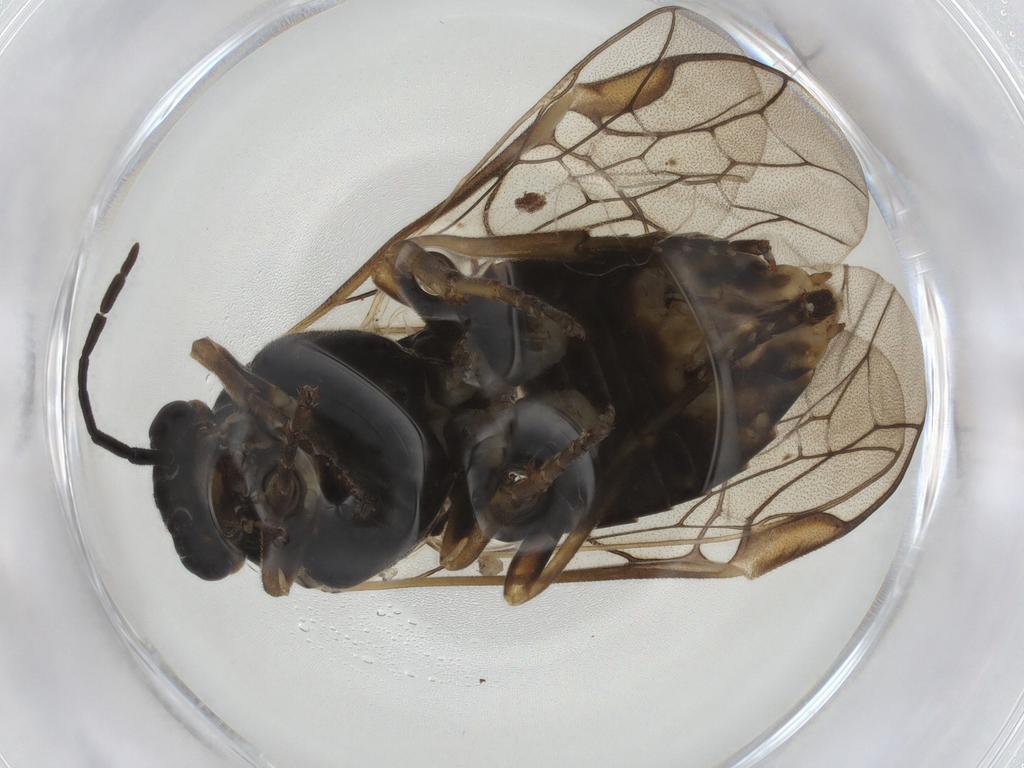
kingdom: Animalia
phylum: Arthropoda
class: Insecta
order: Hymenoptera
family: Tenthredinidae
